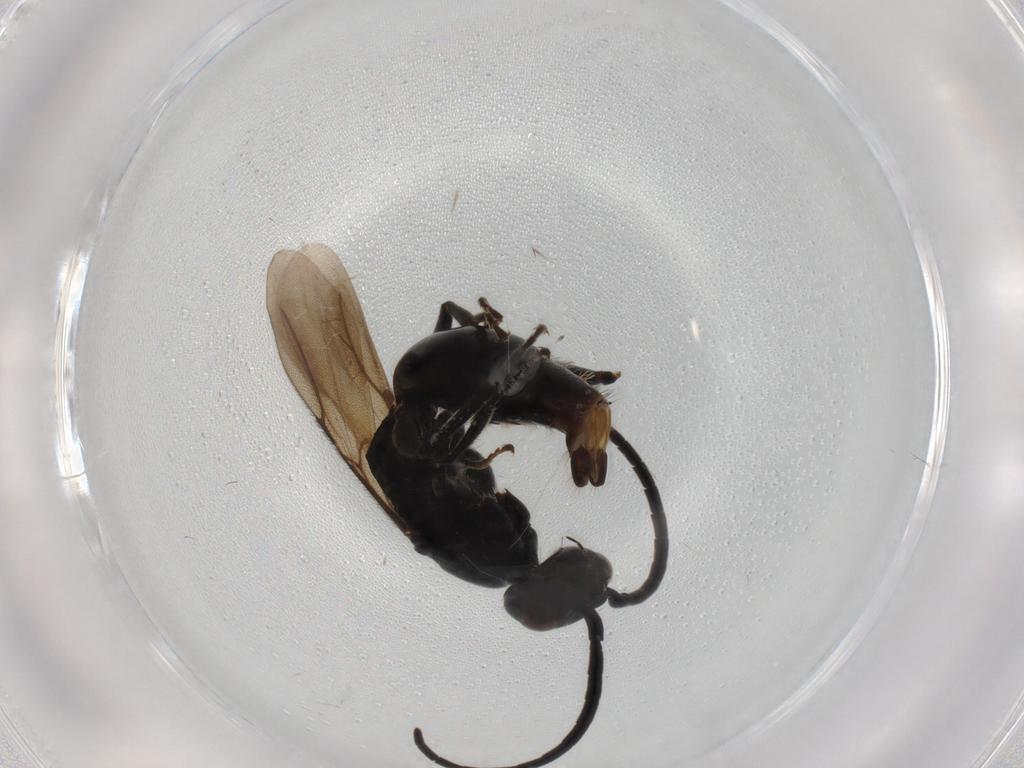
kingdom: Animalia
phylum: Arthropoda
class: Insecta
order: Hymenoptera
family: Bethylidae
